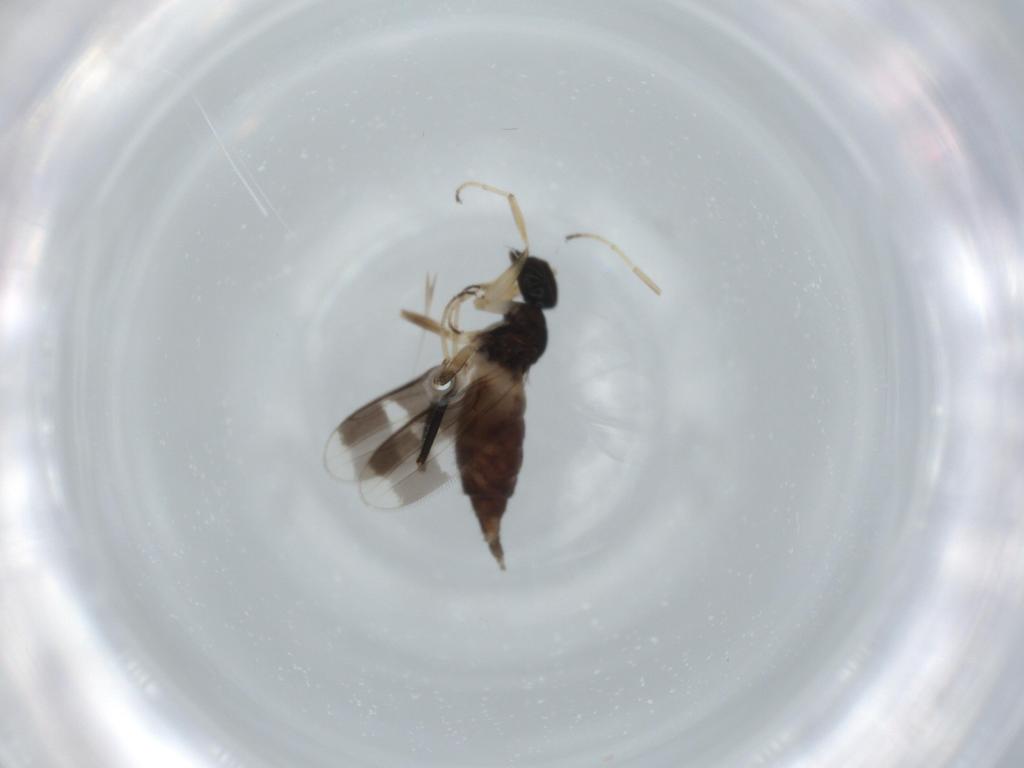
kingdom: Animalia
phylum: Arthropoda
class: Insecta
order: Diptera
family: Hybotidae
